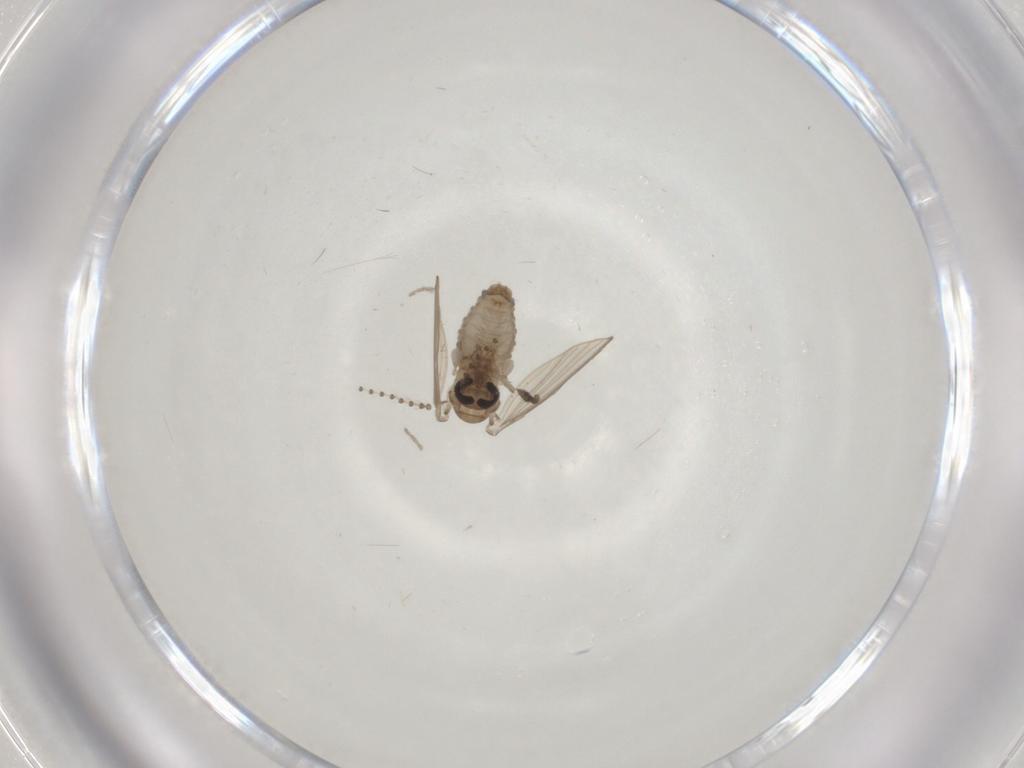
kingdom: Animalia
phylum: Arthropoda
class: Insecta
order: Diptera
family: Psychodidae
